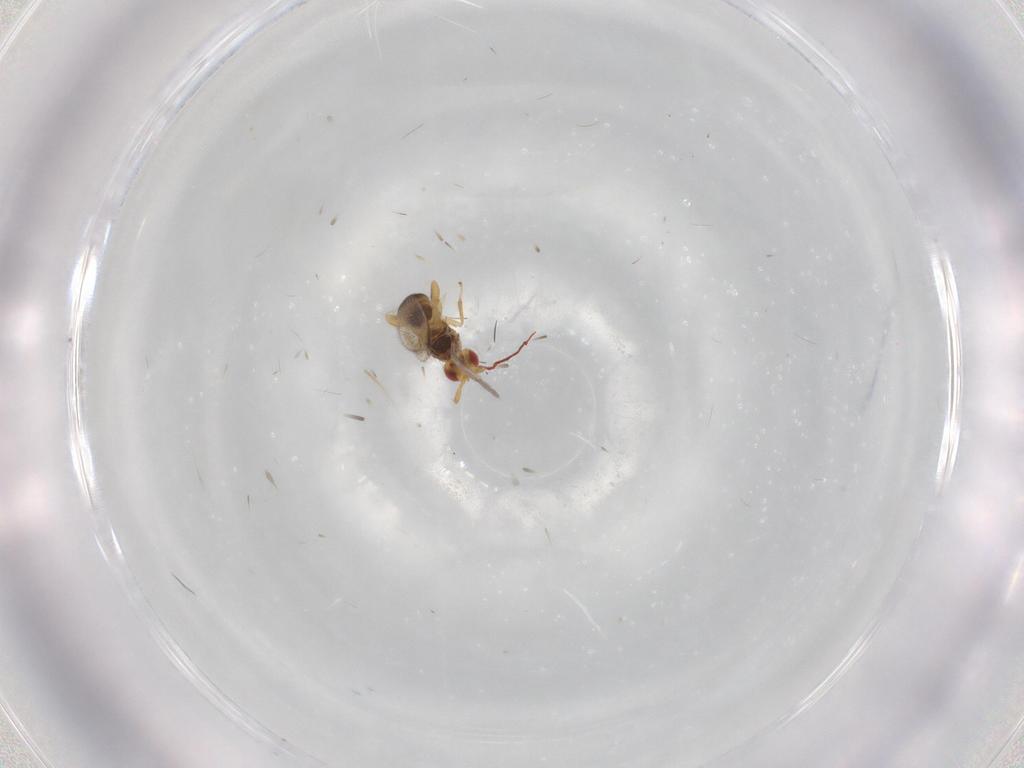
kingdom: Animalia
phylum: Arthropoda
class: Insecta
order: Hymenoptera
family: Torymidae
